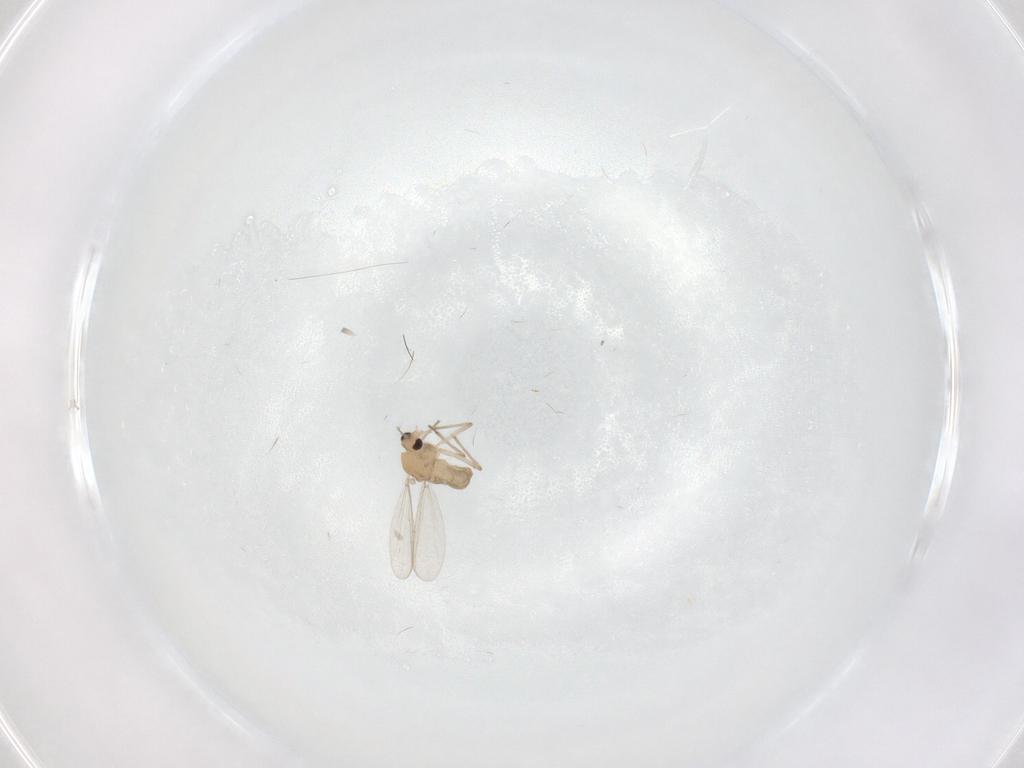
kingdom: Animalia
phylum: Arthropoda
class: Insecta
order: Diptera
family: Chironomidae
